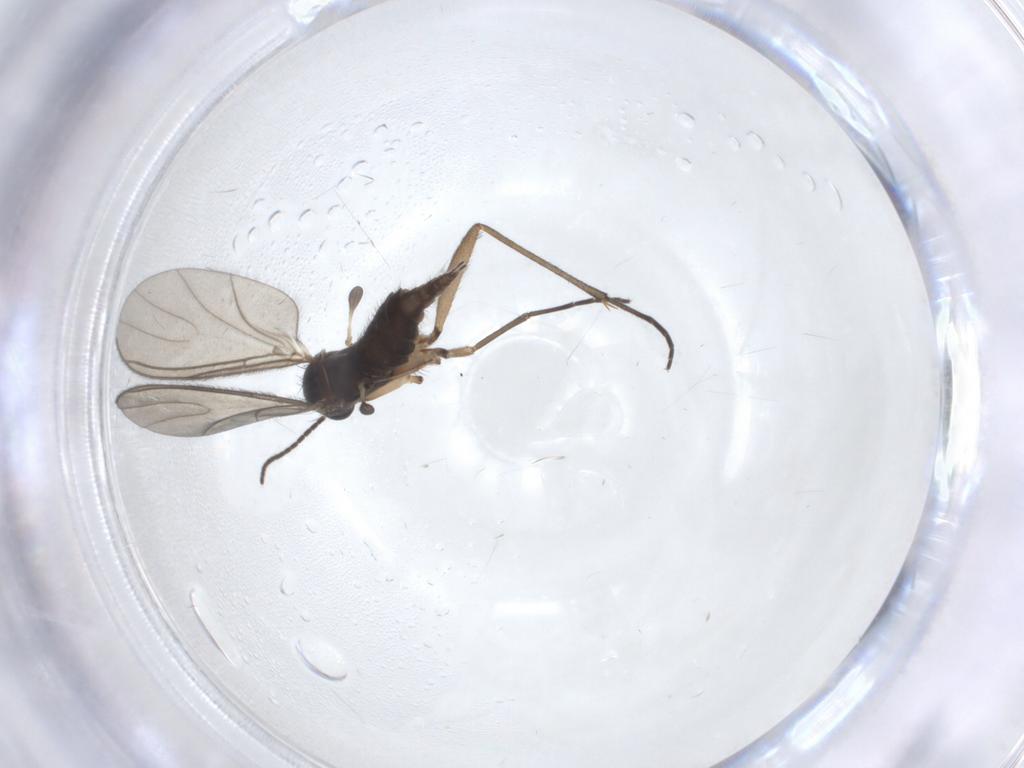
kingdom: Animalia
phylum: Arthropoda
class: Insecta
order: Diptera
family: Sciaridae
